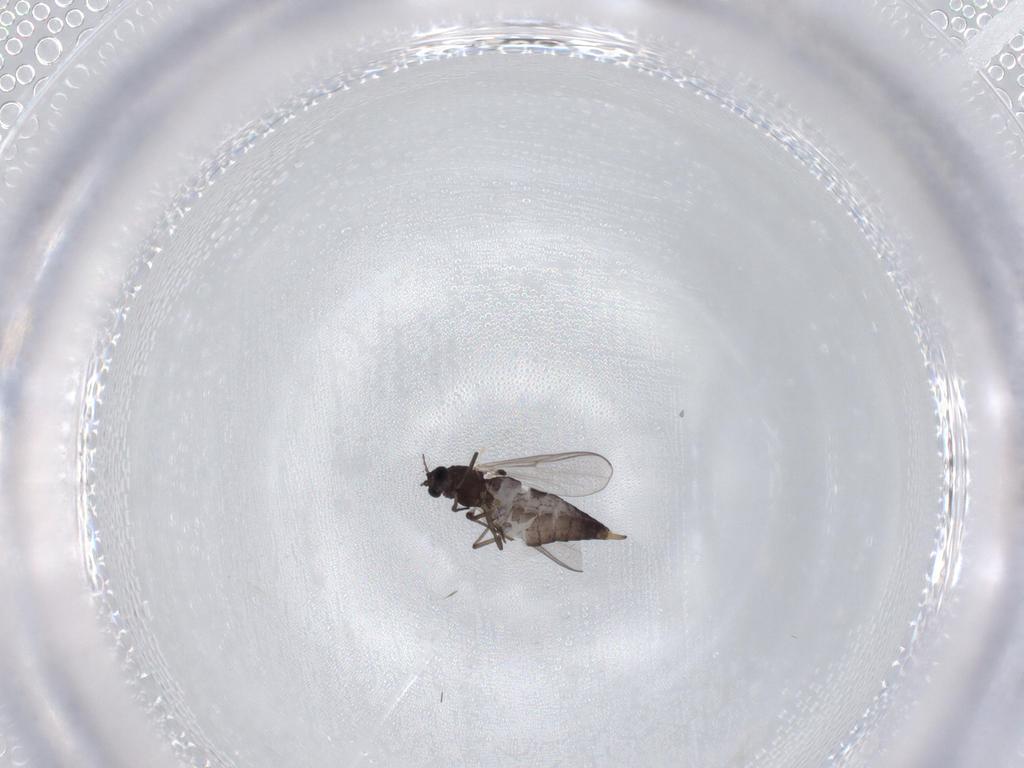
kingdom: Animalia
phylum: Arthropoda
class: Insecta
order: Diptera
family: Chironomidae
